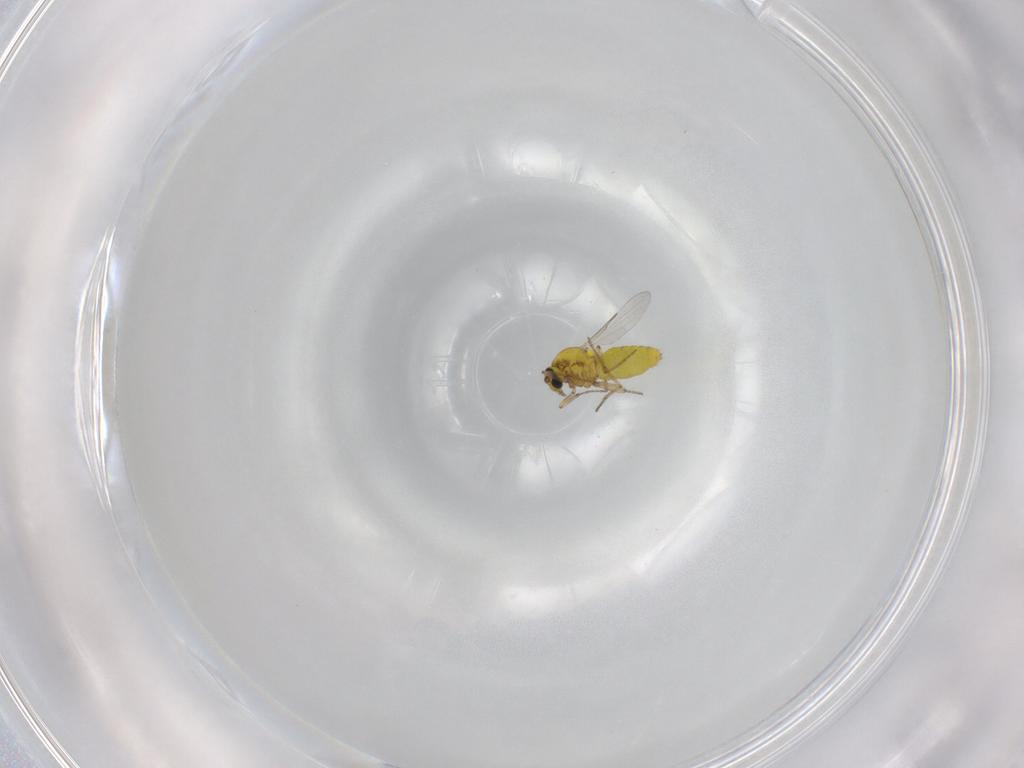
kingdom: Animalia
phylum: Arthropoda
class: Insecta
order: Diptera
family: Ceratopogonidae
